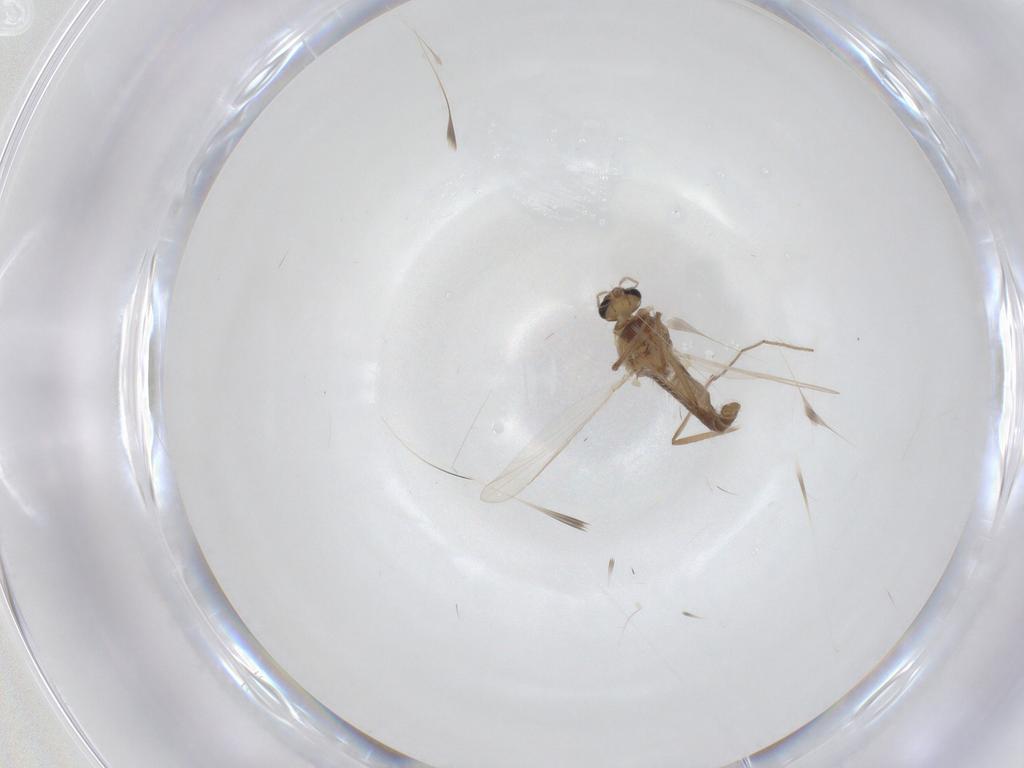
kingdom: Animalia
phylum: Arthropoda
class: Insecta
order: Diptera
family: Chironomidae
